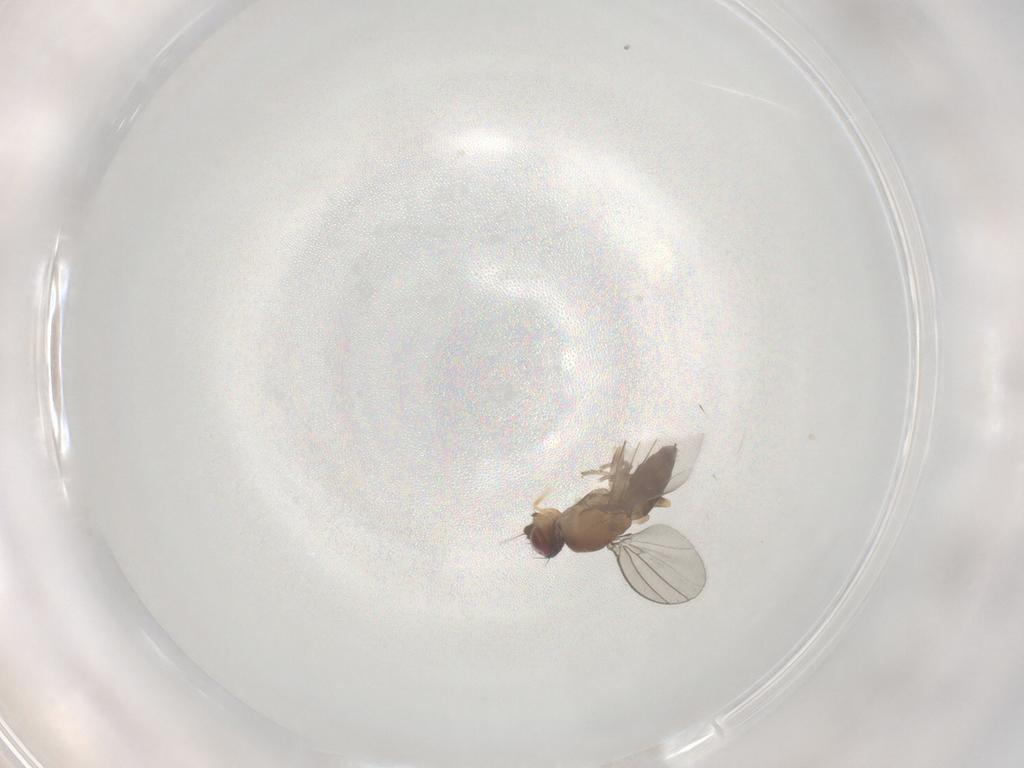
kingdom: Animalia
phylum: Arthropoda
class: Insecta
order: Diptera
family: Milichiidae
